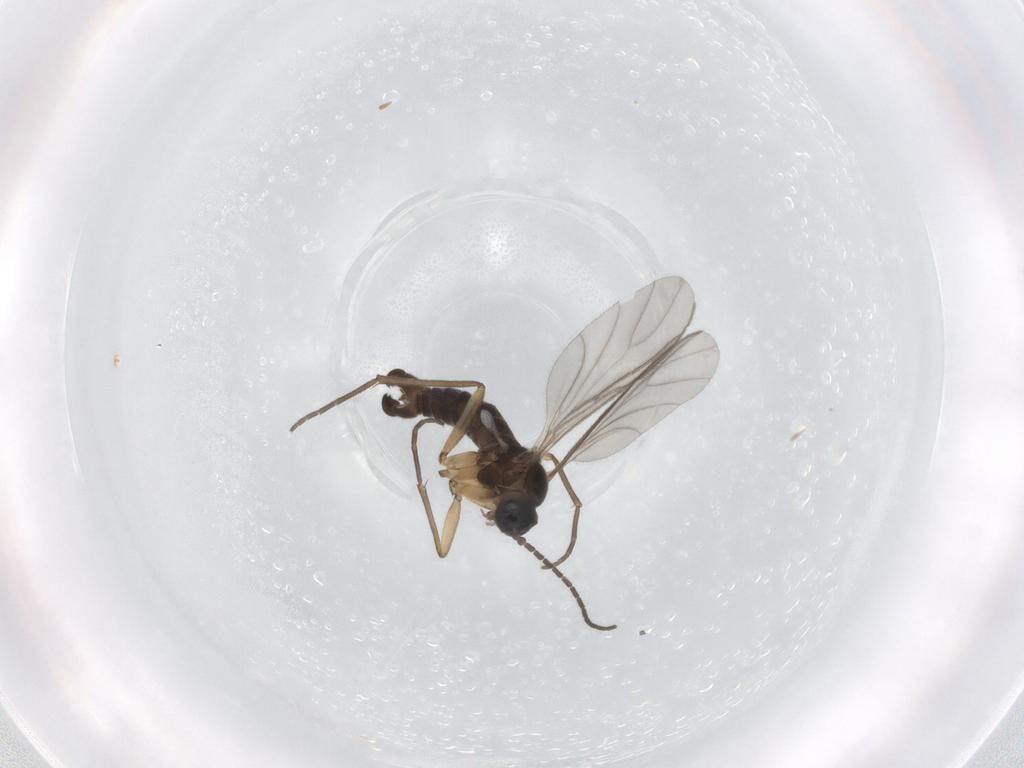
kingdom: Animalia
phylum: Arthropoda
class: Insecta
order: Diptera
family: Sciaridae
